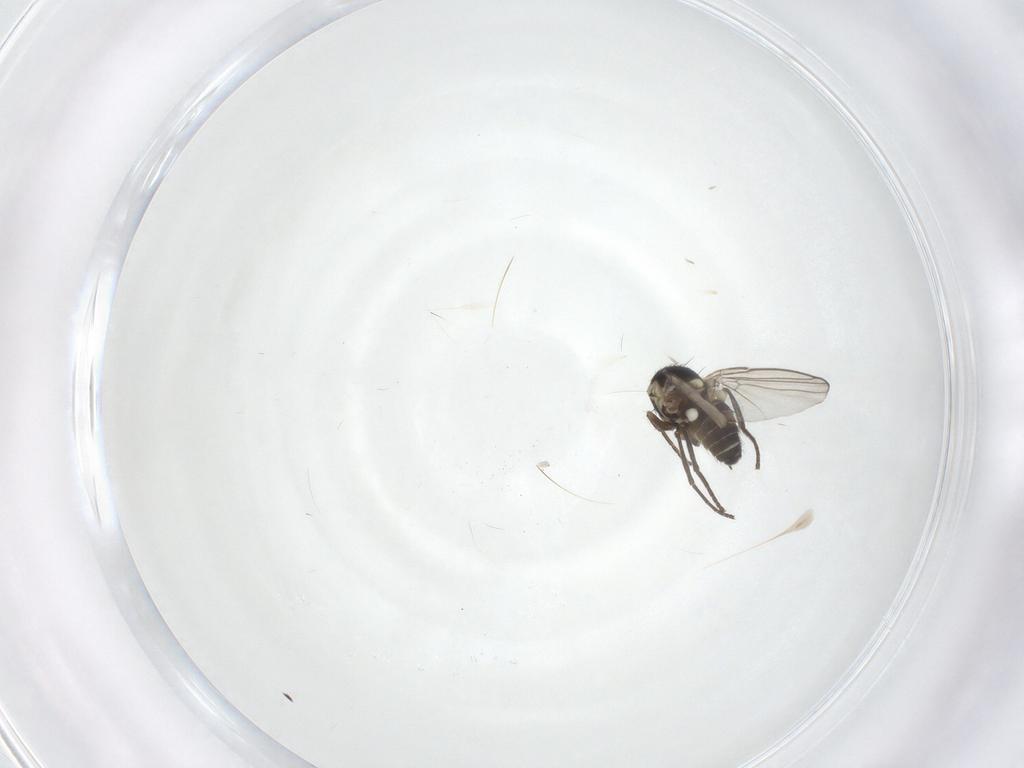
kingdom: Animalia
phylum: Arthropoda
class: Insecta
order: Diptera
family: Agromyzidae
